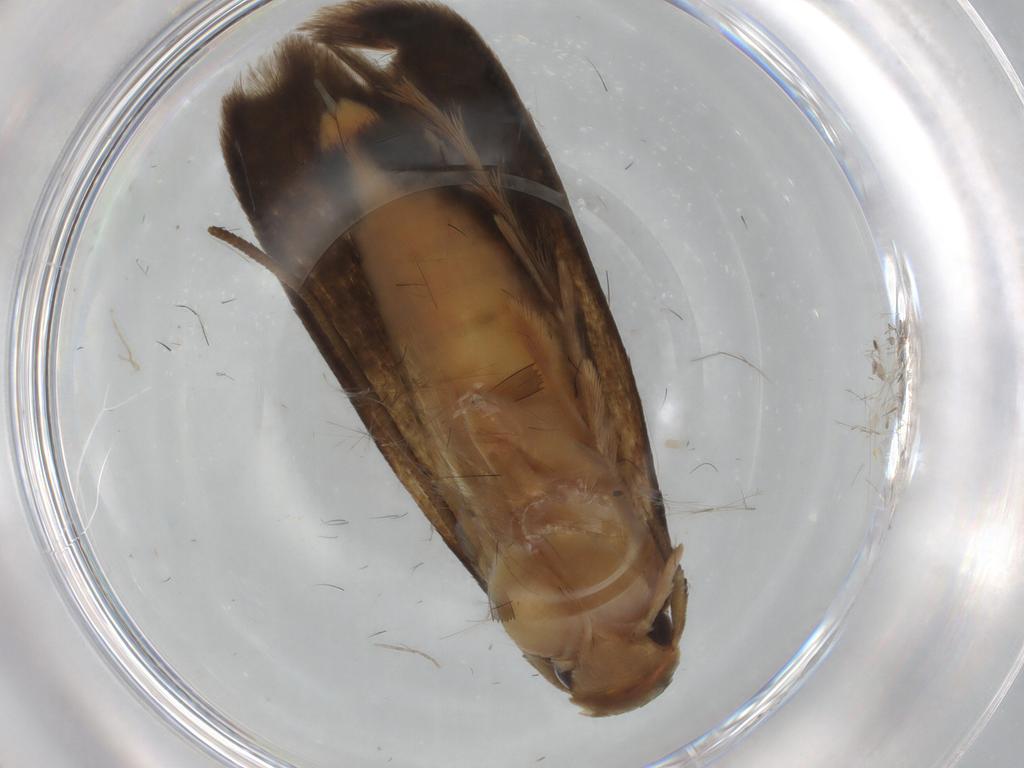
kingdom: Animalia
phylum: Arthropoda
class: Insecta
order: Lepidoptera
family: Tineidae
